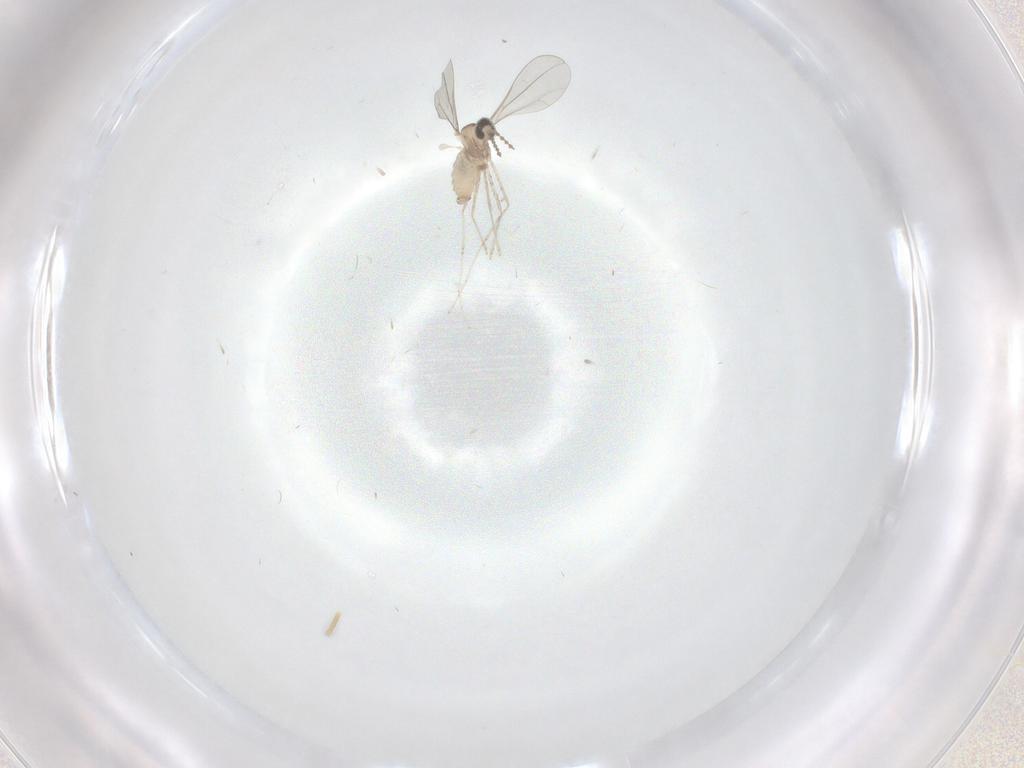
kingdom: Animalia
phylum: Arthropoda
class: Insecta
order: Diptera
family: Cecidomyiidae
